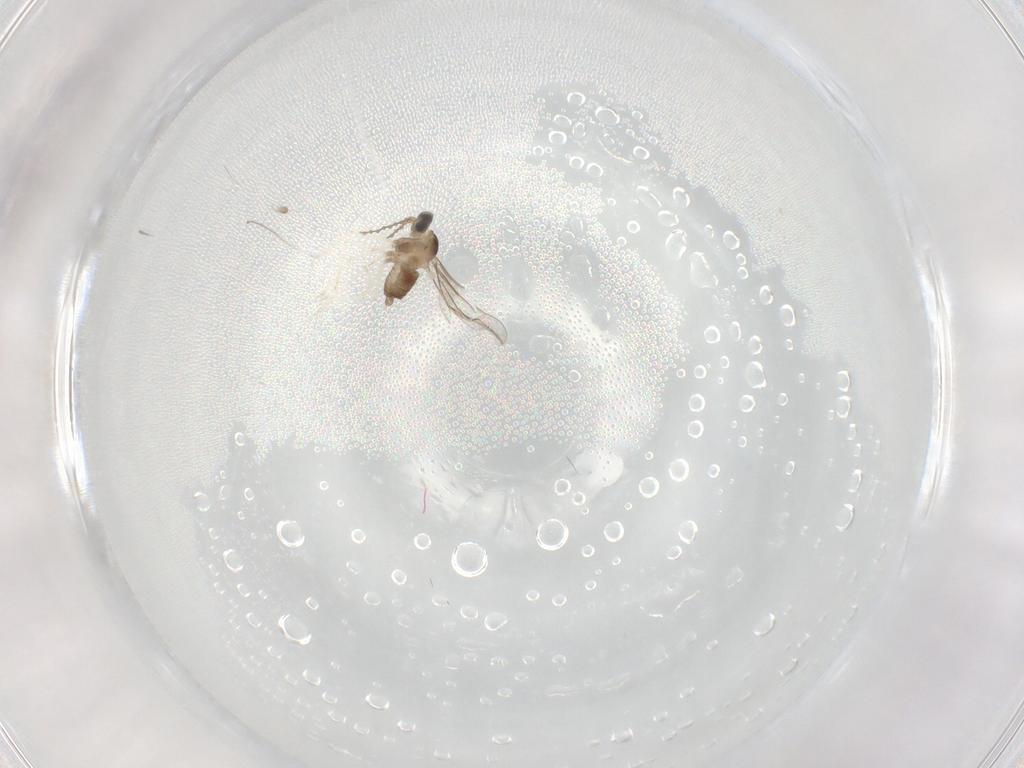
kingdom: Animalia
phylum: Arthropoda
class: Insecta
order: Diptera
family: Cecidomyiidae
